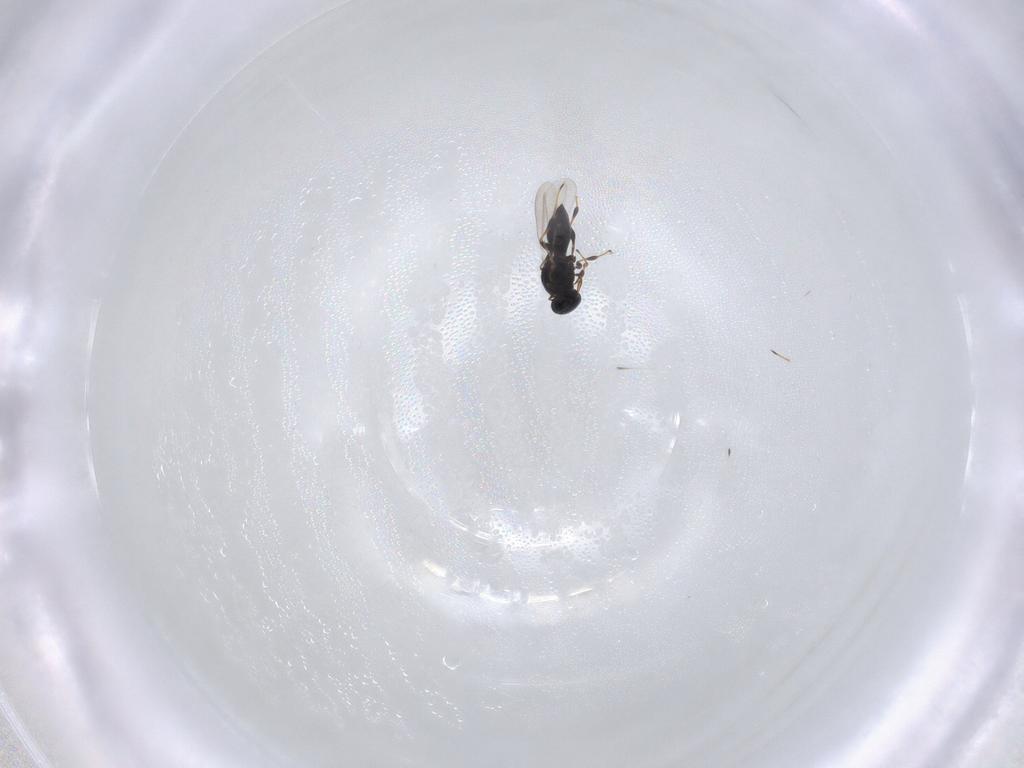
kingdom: Animalia
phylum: Arthropoda
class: Insecta
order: Hymenoptera
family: Platygastridae
